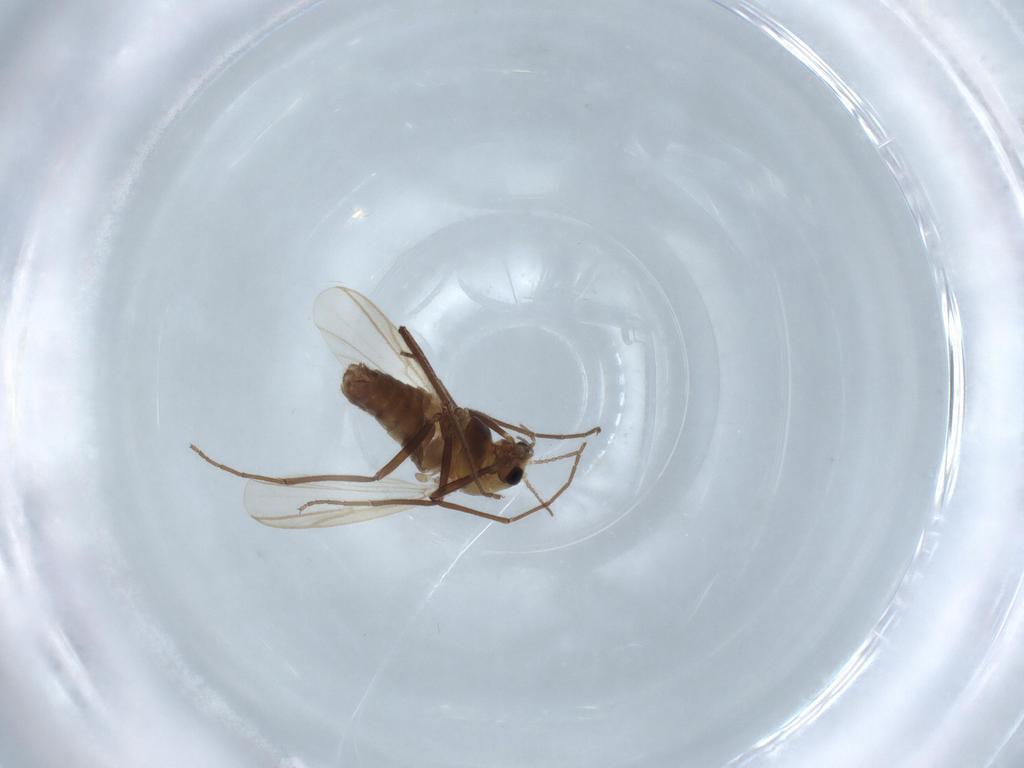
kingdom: Animalia
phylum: Arthropoda
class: Insecta
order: Diptera
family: Chironomidae
